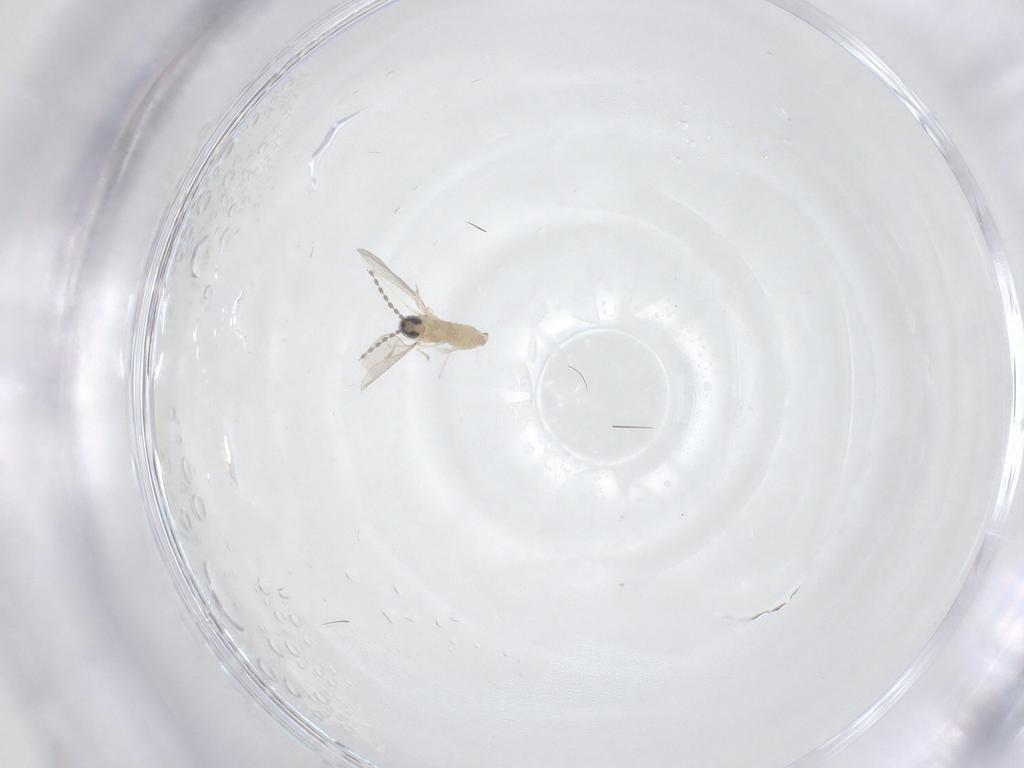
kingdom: Animalia
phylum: Arthropoda
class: Insecta
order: Diptera
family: Cecidomyiidae
